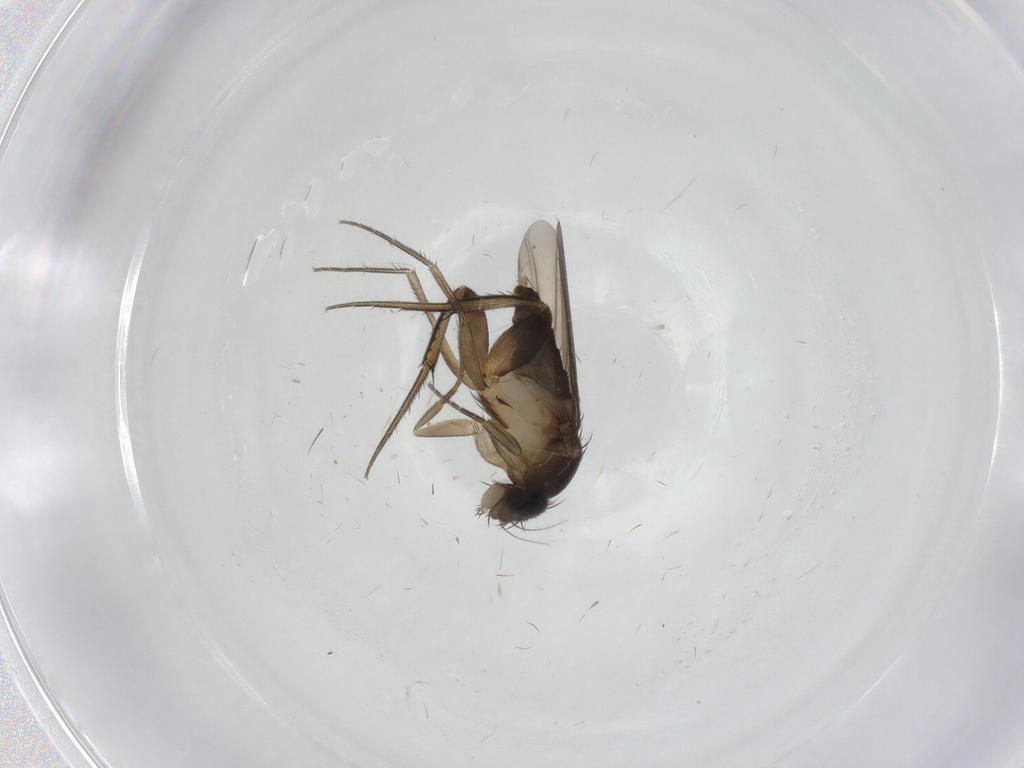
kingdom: Animalia
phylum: Arthropoda
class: Insecta
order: Diptera
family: Phoridae
